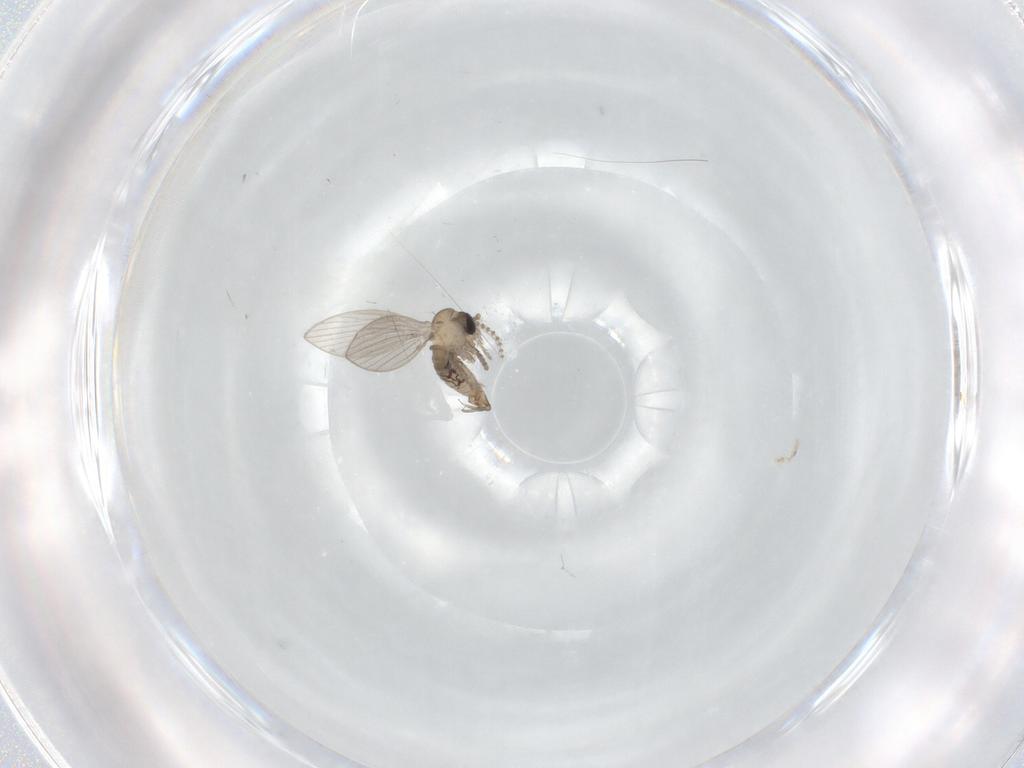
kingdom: Animalia
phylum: Arthropoda
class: Insecta
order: Diptera
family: Psychodidae
